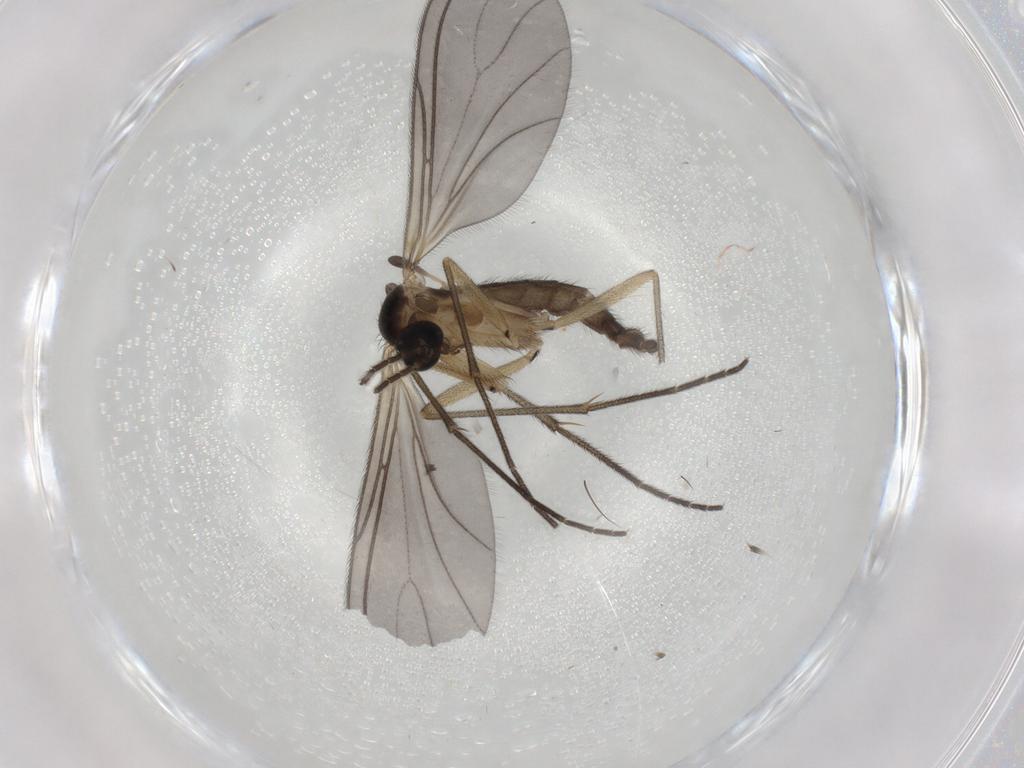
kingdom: Animalia
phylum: Arthropoda
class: Insecta
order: Diptera
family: Sciaridae
